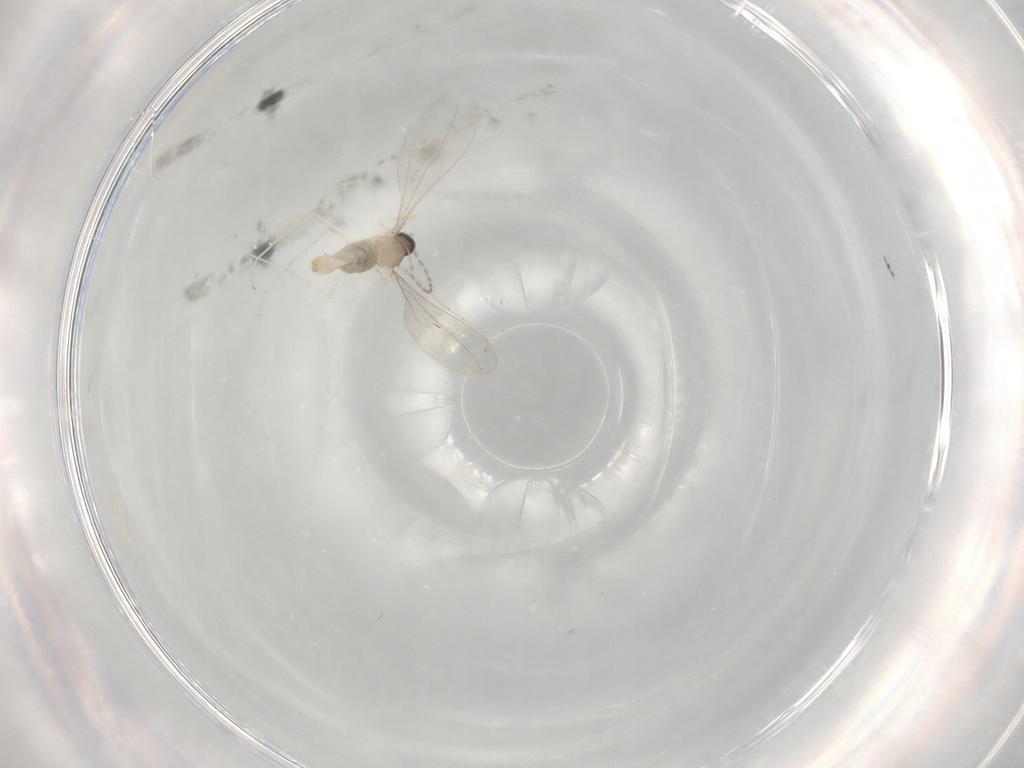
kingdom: Animalia
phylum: Arthropoda
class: Insecta
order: Diptera
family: Cecidomyiidae
